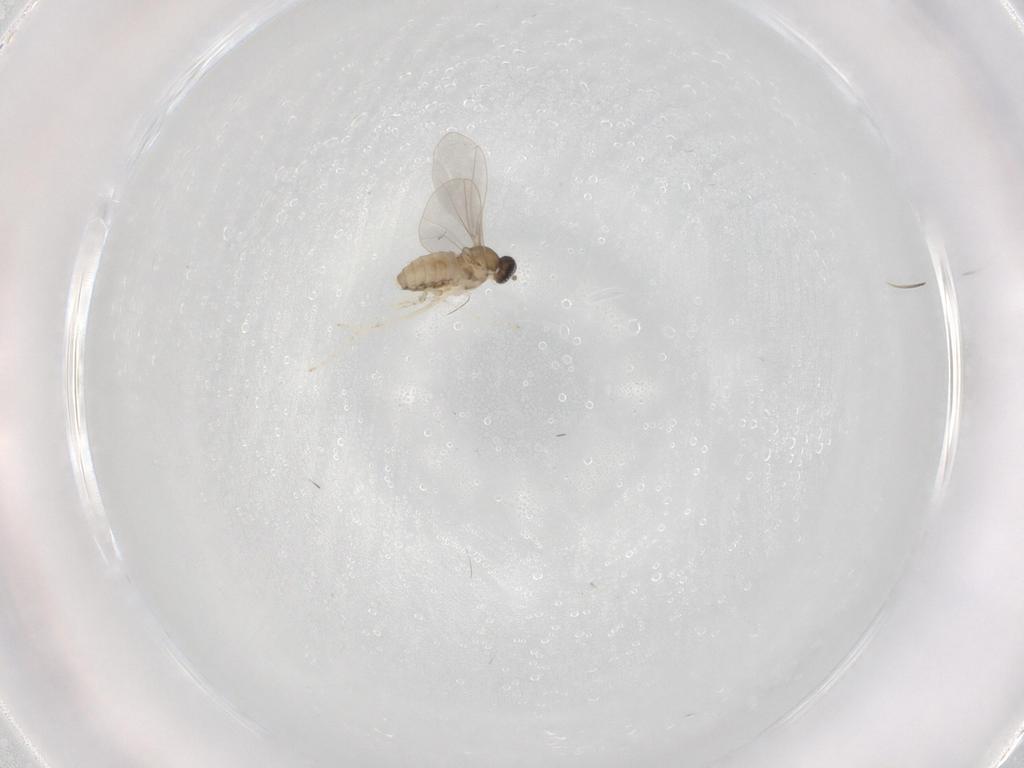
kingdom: Animalia
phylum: Arthropoda
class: Insecta
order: Diptera
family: Cecidomyiidae
